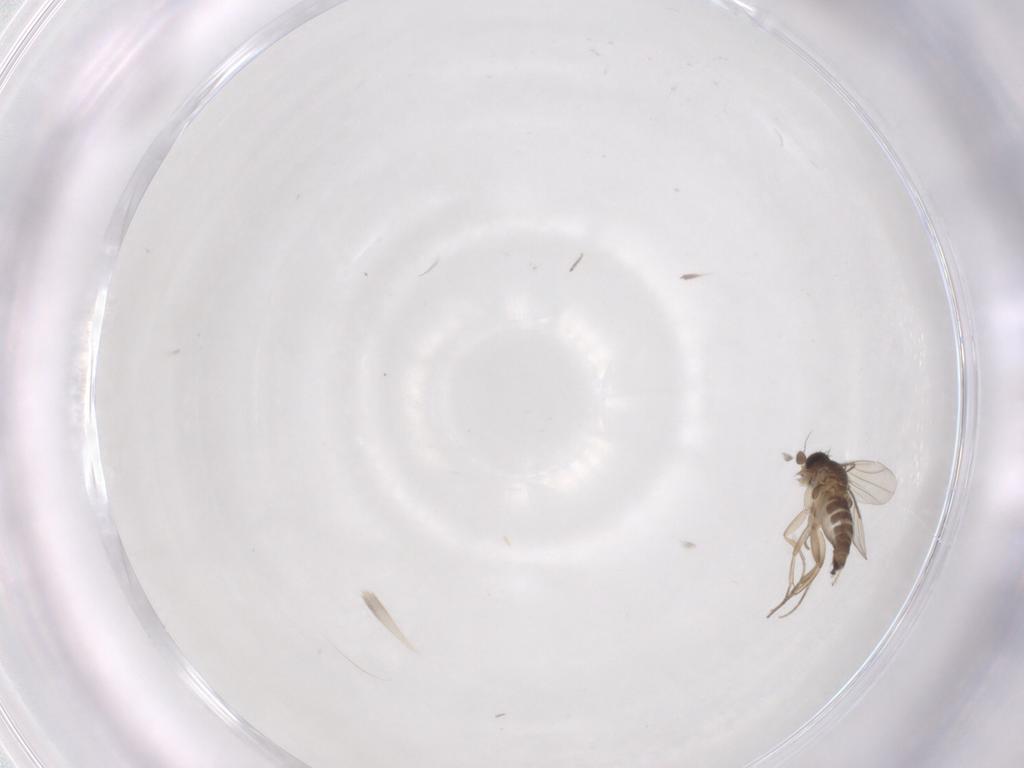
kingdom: Animalia
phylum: Arthropoda
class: Insecta
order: Diptera
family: Phoridae
